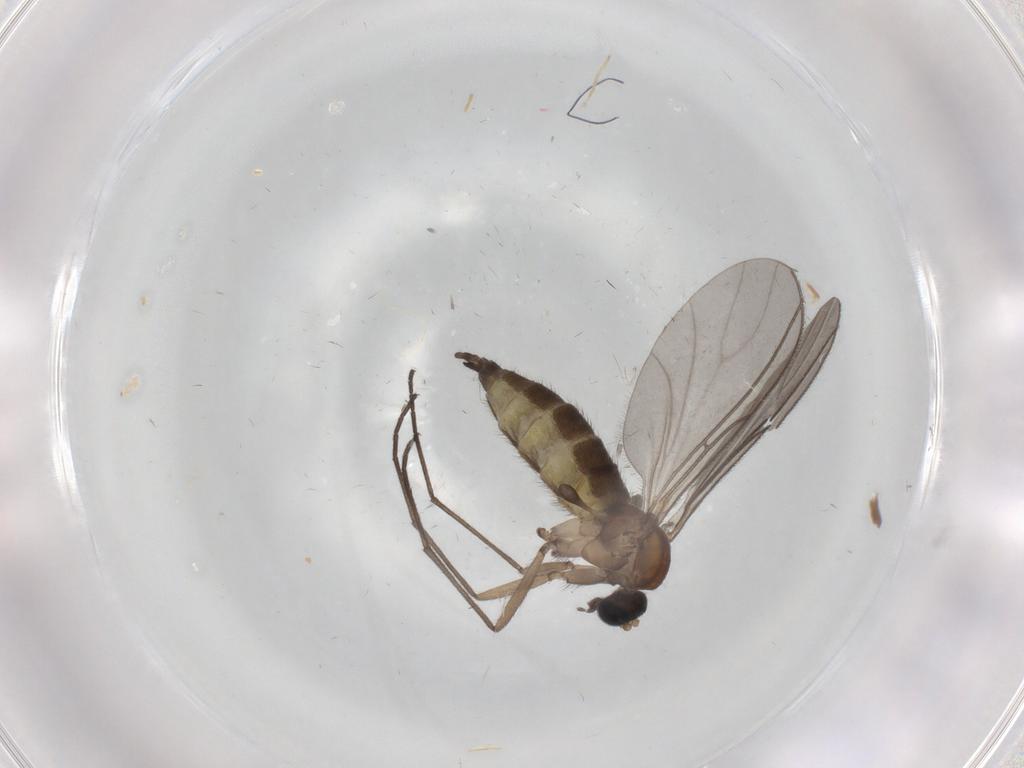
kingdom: Animalia
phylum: Arthropoda
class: Insecta
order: Diptera
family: Sciaridae
